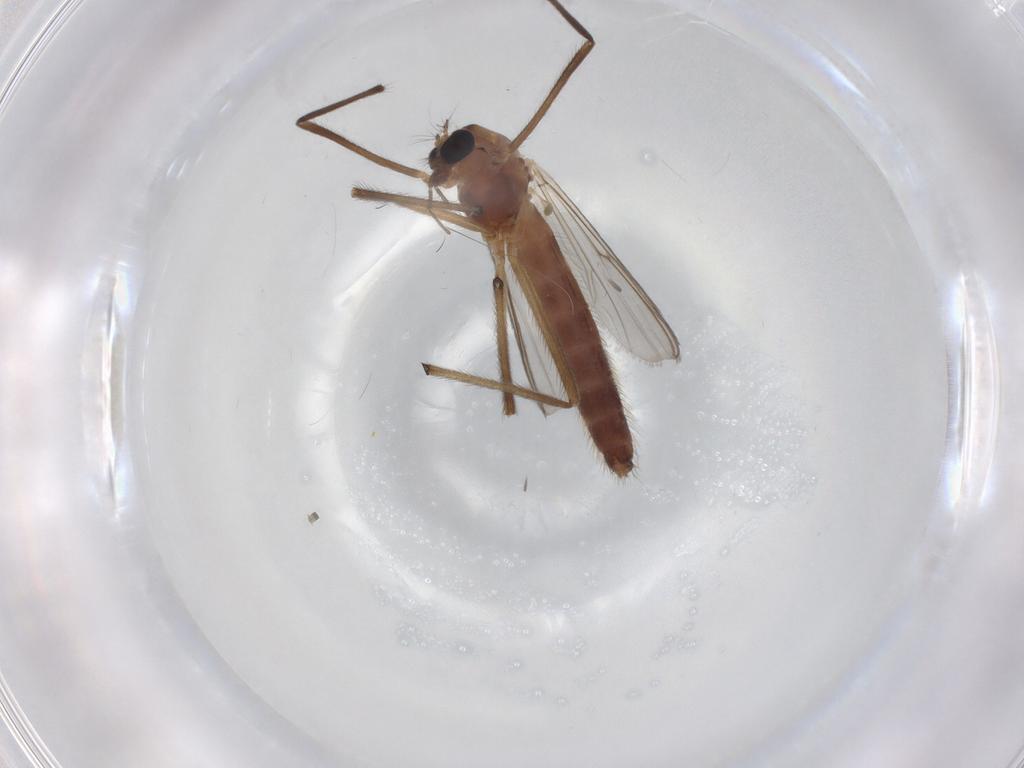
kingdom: Animalia
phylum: Arthropoda
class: Insecta
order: Diptera
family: Chironomidae
